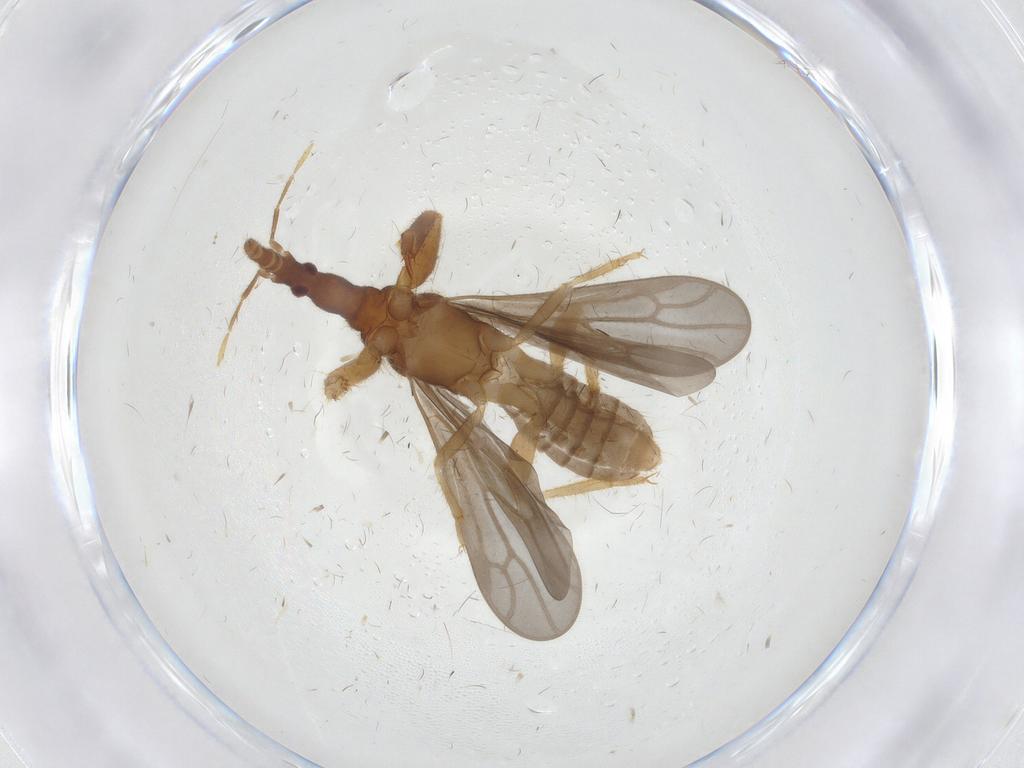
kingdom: Animalia
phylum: Arthropoda
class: Insecta
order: Hemiptera
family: Enicocephalidae
